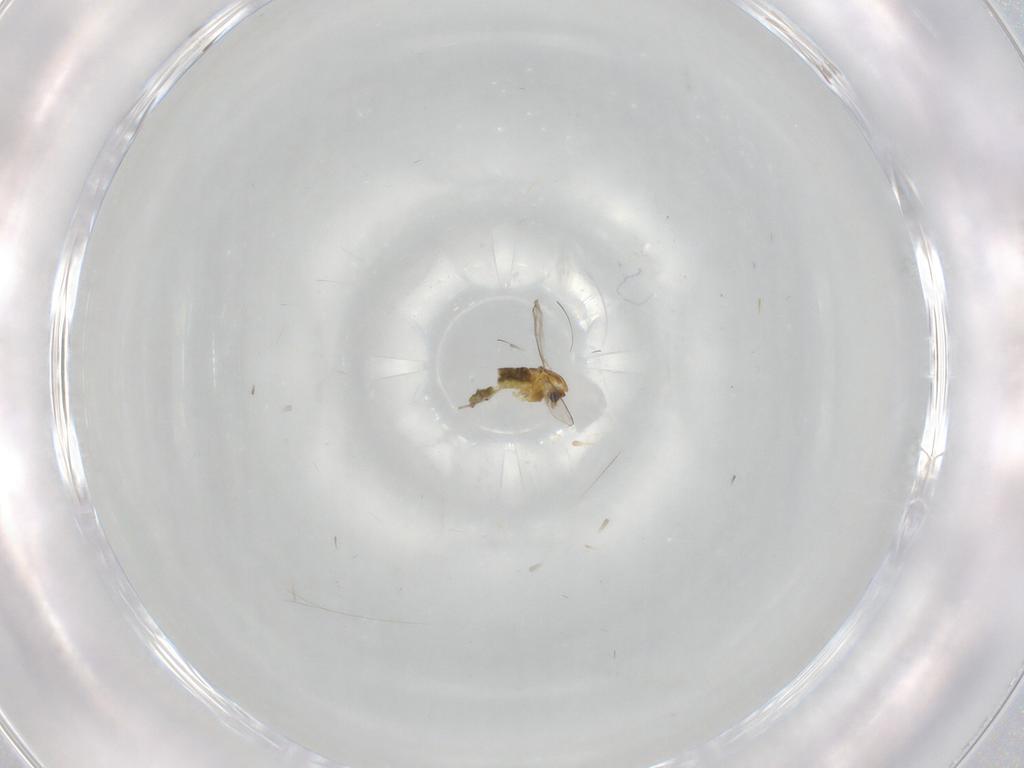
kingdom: Animalia
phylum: Arthropoda
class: Insecta
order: Diptera
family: Chironomidae
